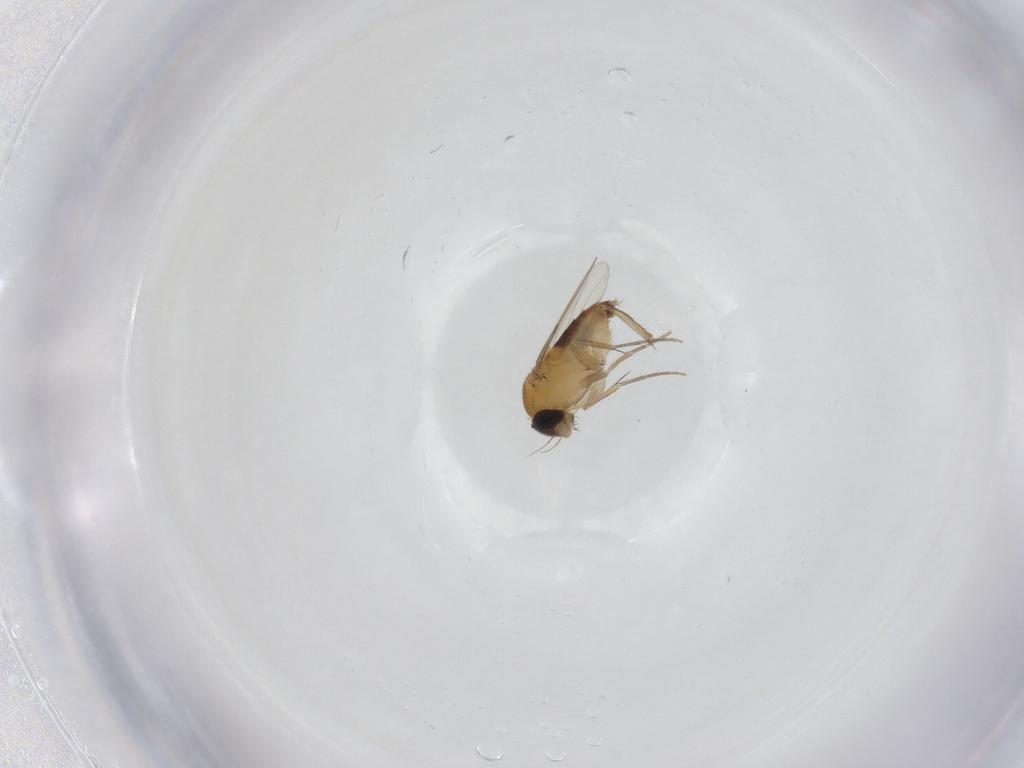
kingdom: Animalia
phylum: Arthropoda
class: Insecta
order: Diptera
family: Phoridae
